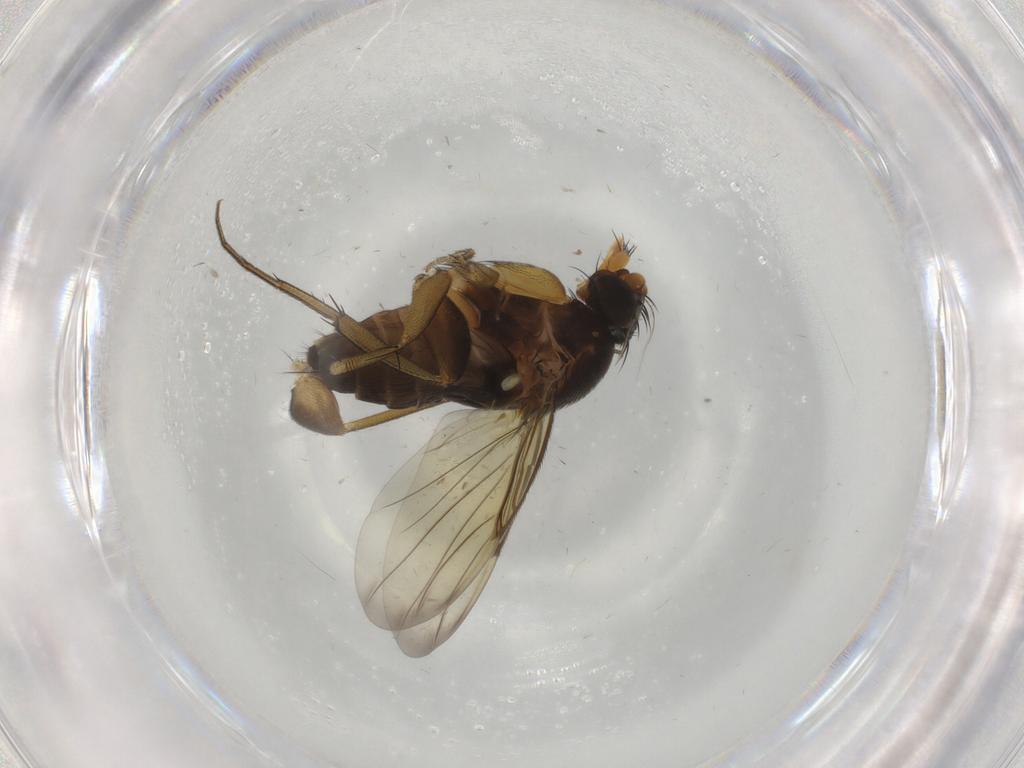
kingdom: Animalia
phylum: Arthropoda
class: Insecta
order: Diptera
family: Phoridae
